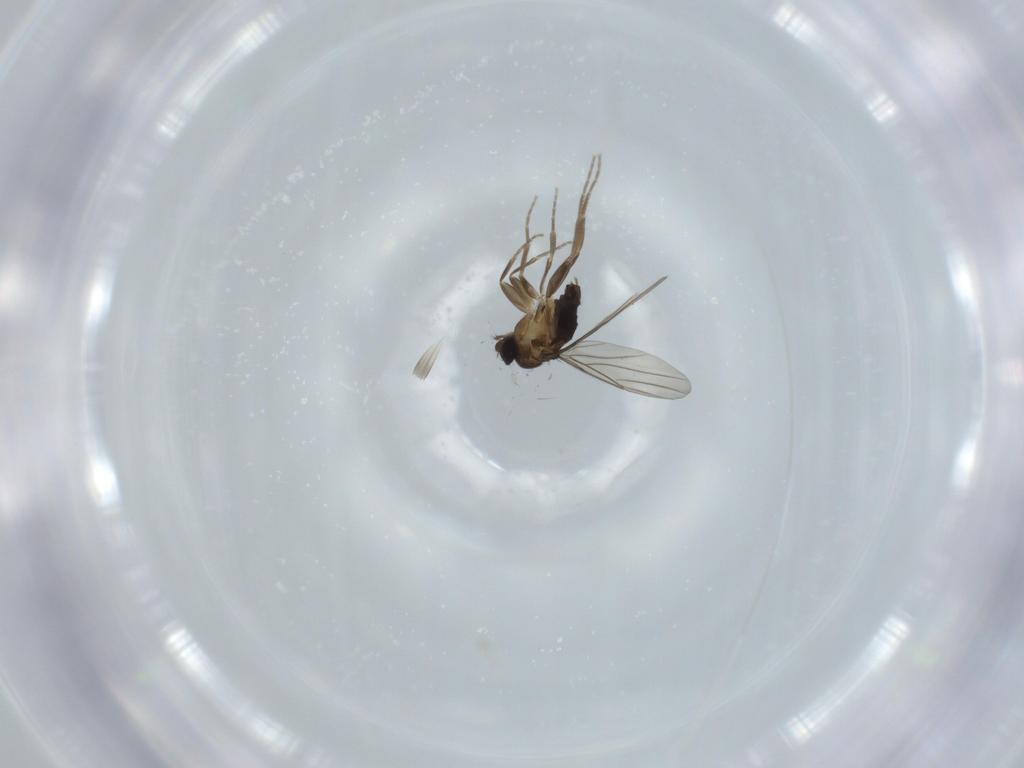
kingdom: Animalia
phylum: Arthropoda
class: Insecta
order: Diptera
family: Phoridae
